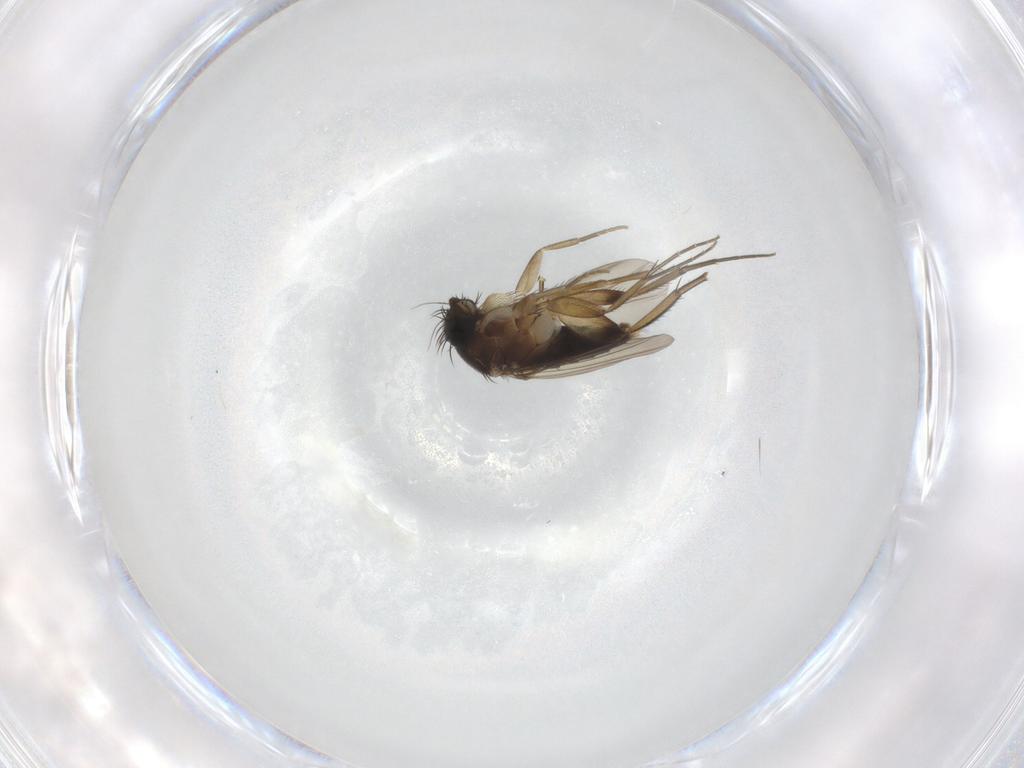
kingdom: Animalia
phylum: Arthropoda
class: Insecta
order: Diptera
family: Phoridae
